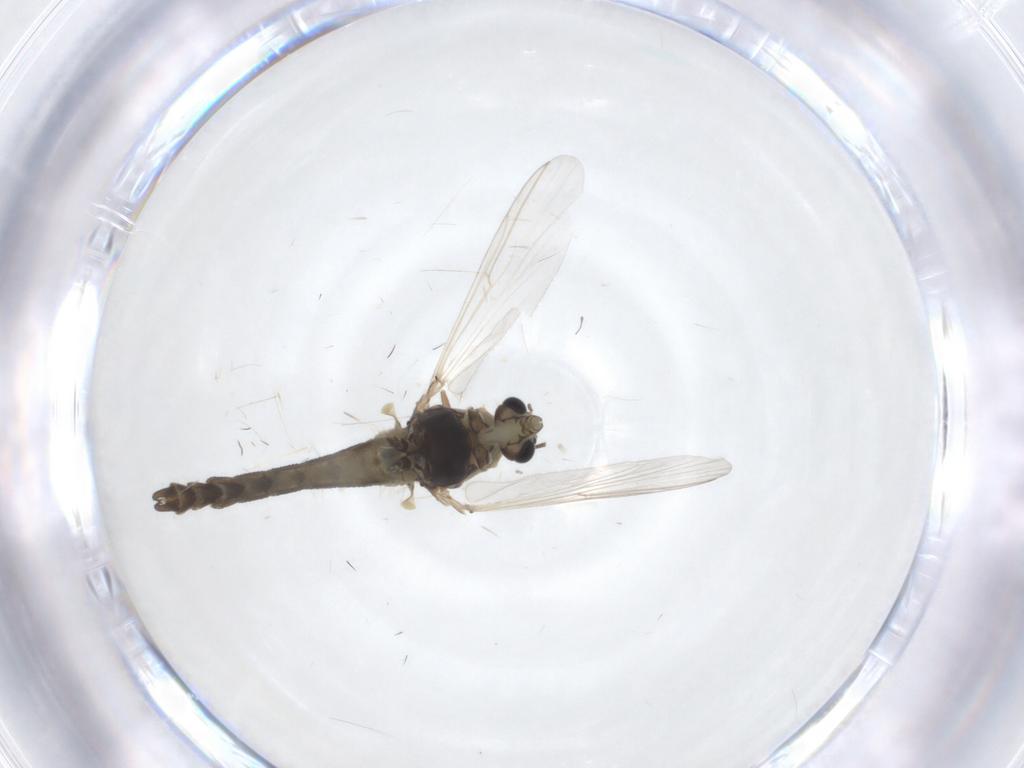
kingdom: Animalia
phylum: Arthropoda
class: Insecta
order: Diptera
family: Chironomidae
